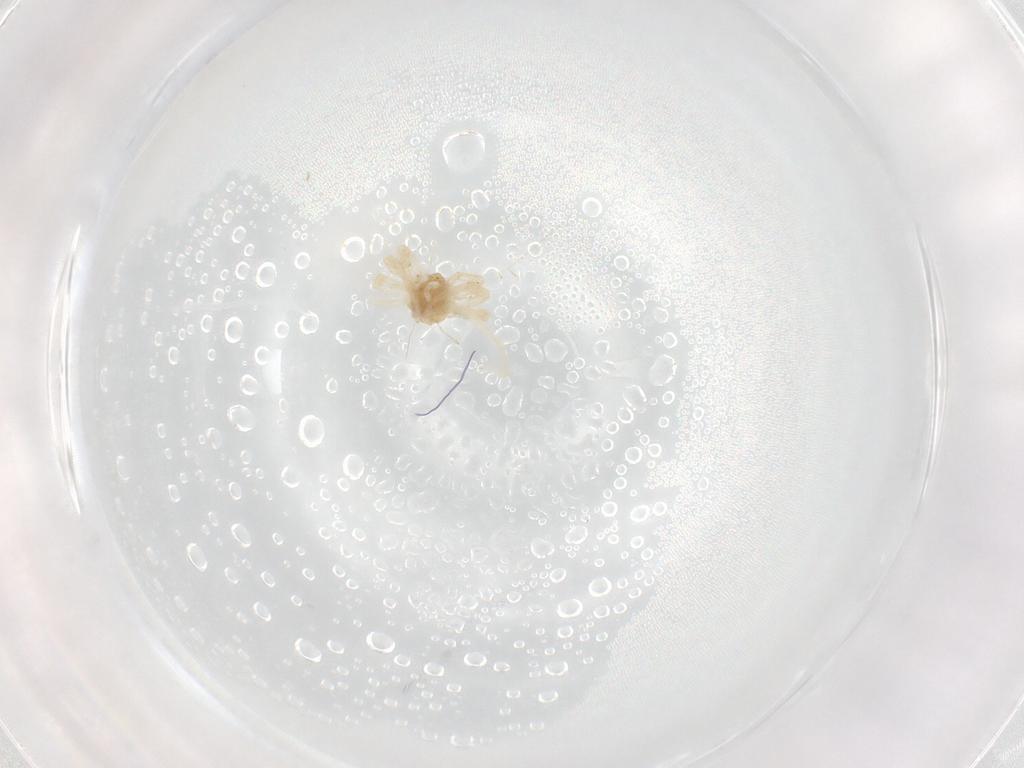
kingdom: Animalia
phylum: Arthropoda
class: Arachnida
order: Trombidiformes
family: Anystidae
